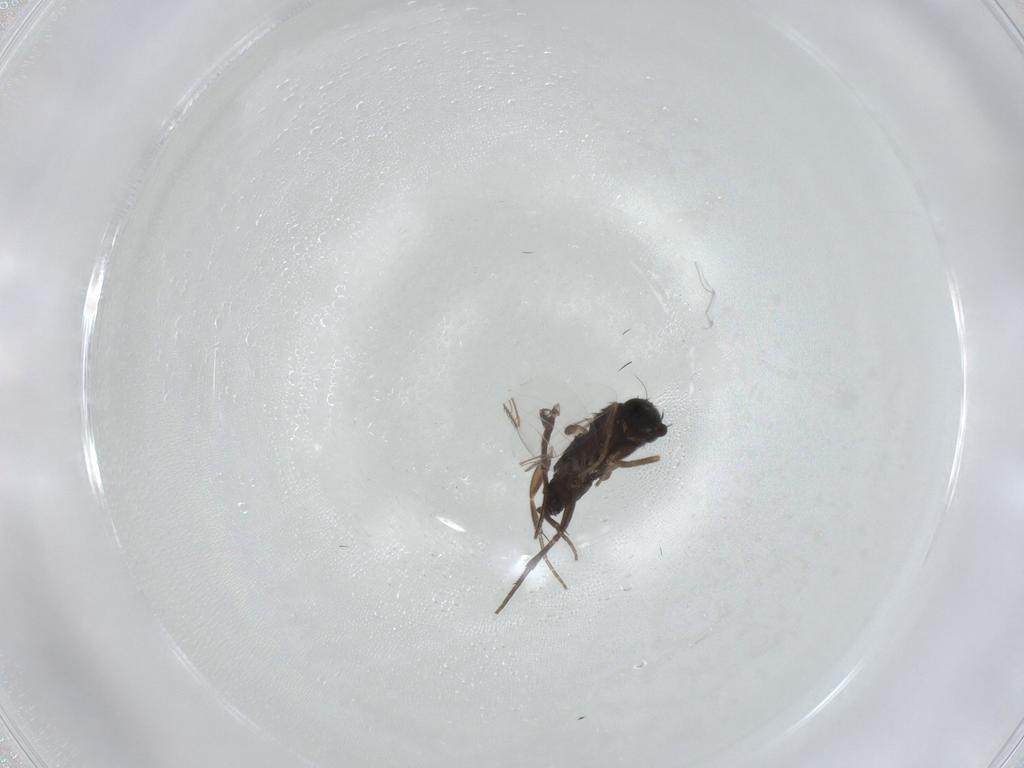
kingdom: Animalia
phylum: Arthropoda
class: Insecta
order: Diptera
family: Phoridae
